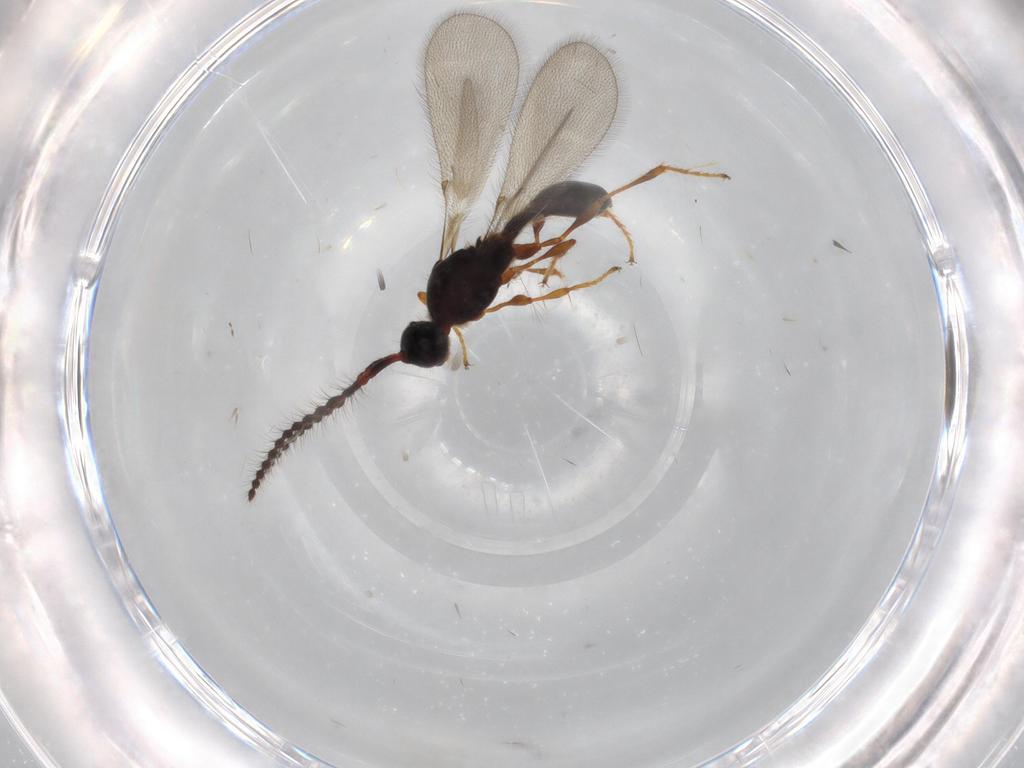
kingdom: Animalia
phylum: Arthropoda
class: Insecta
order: Hymenoptera
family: Diapriidae
